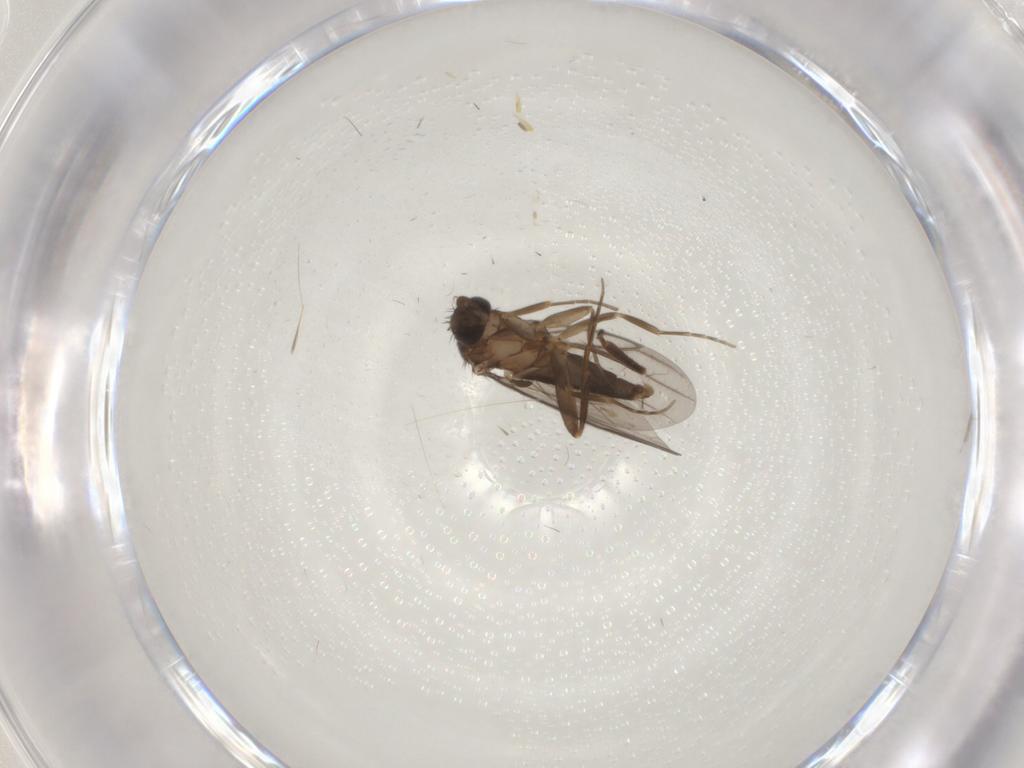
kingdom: Animalia
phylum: Arthropoda
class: Insecta
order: Diptera
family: Phoridae
